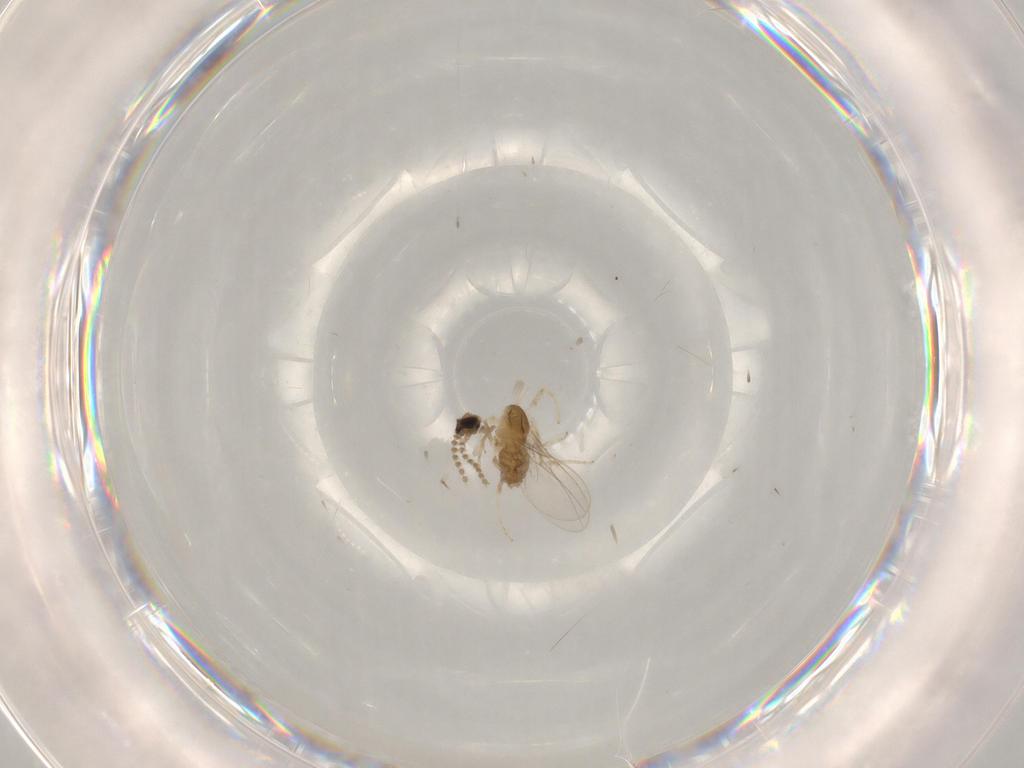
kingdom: Animalia
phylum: Arthropoda
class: Insecta
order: Diptera
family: Cecidomyiidae
